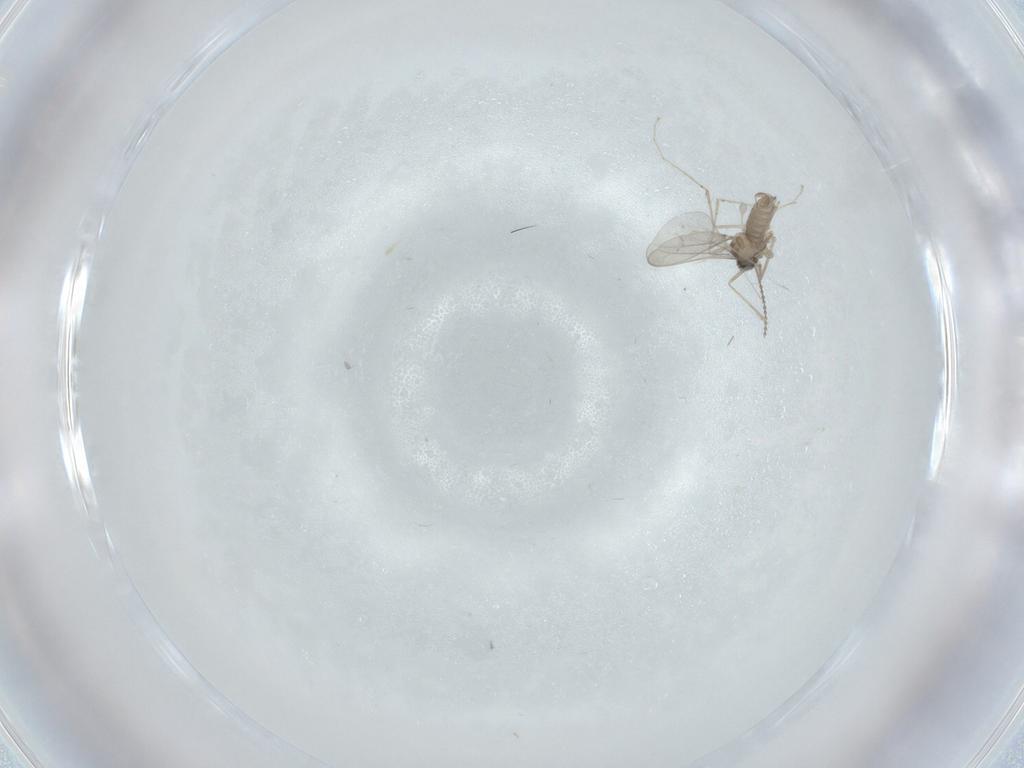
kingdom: Animalia
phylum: Arthropoda
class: Insecta
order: Diptera
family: Cecidomyiidae
